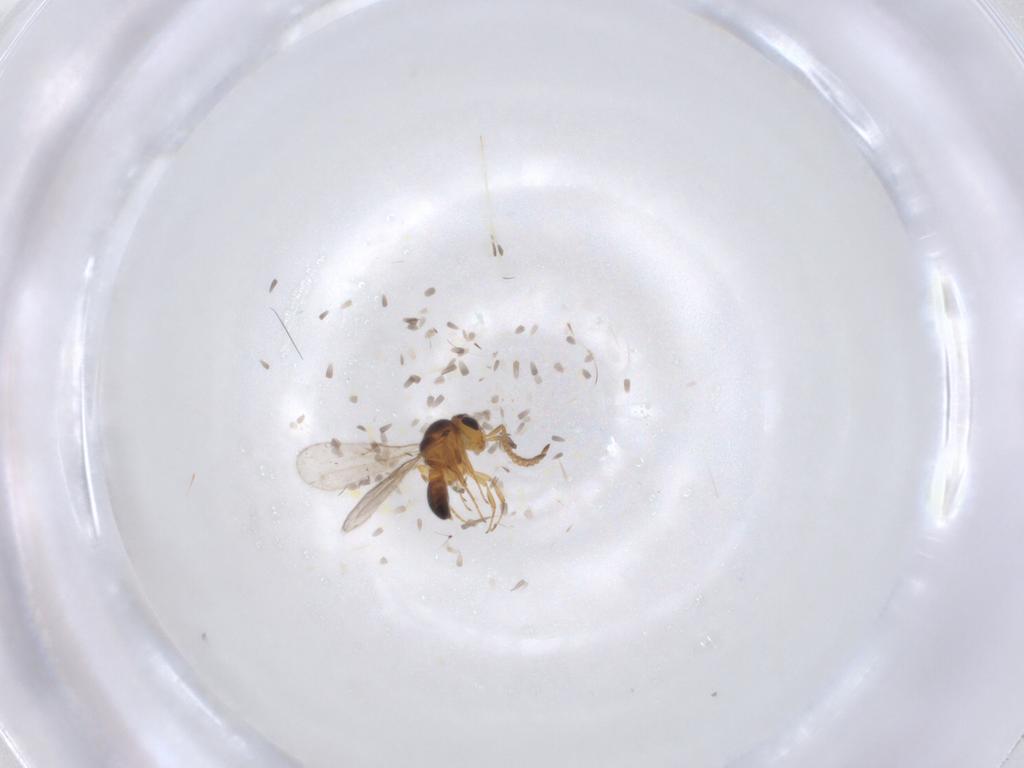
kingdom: Animalia
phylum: Arthropoda
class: Insecta
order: Hymenoptera
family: Scelionidae
